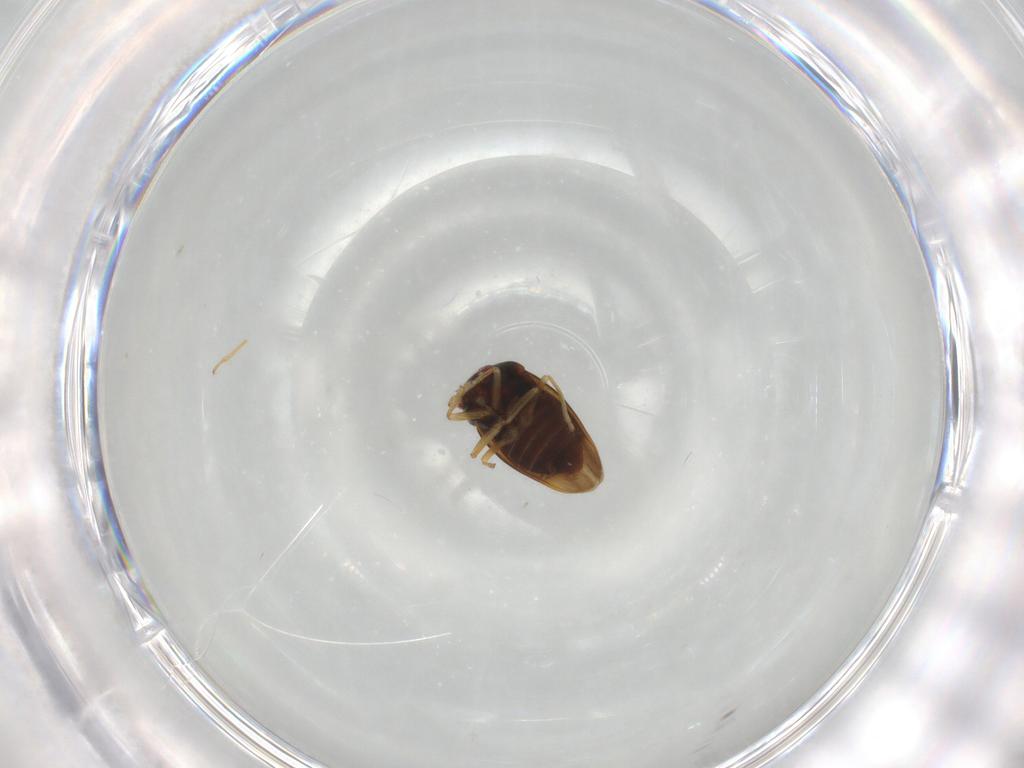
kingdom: Animalia
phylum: Arthropoda
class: Insecta
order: Hemiptera
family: Schizopteridae
